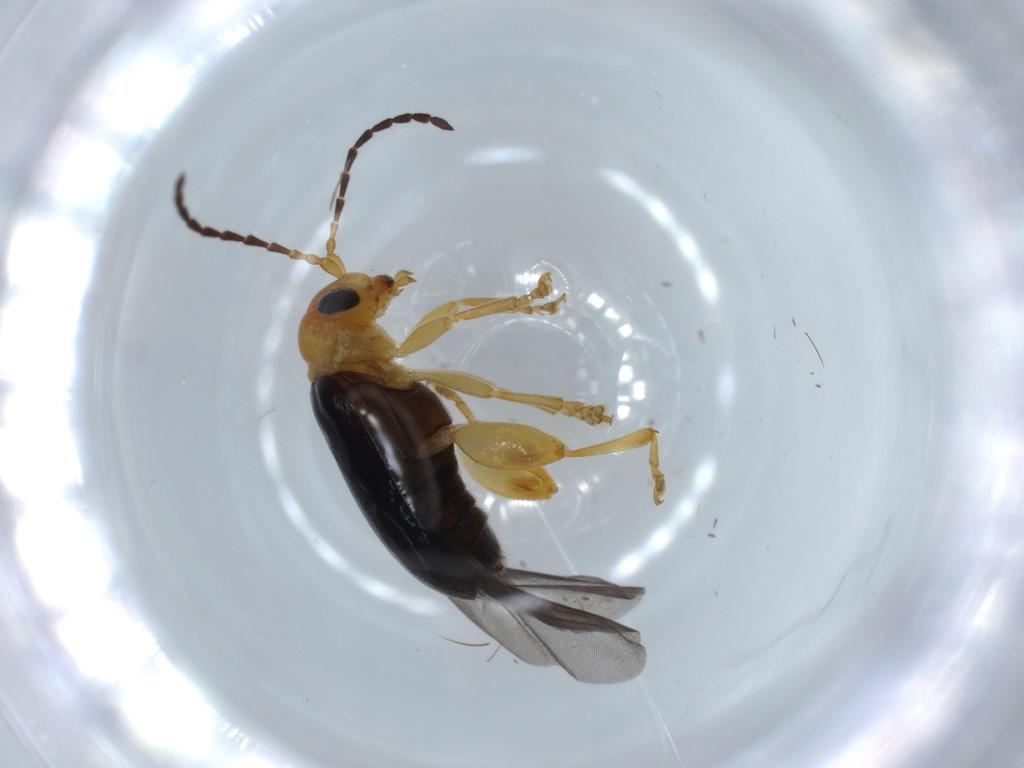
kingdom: Animalia
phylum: Arthropoda
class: Insecta
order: Coleoptera
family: Chrysomelidae
